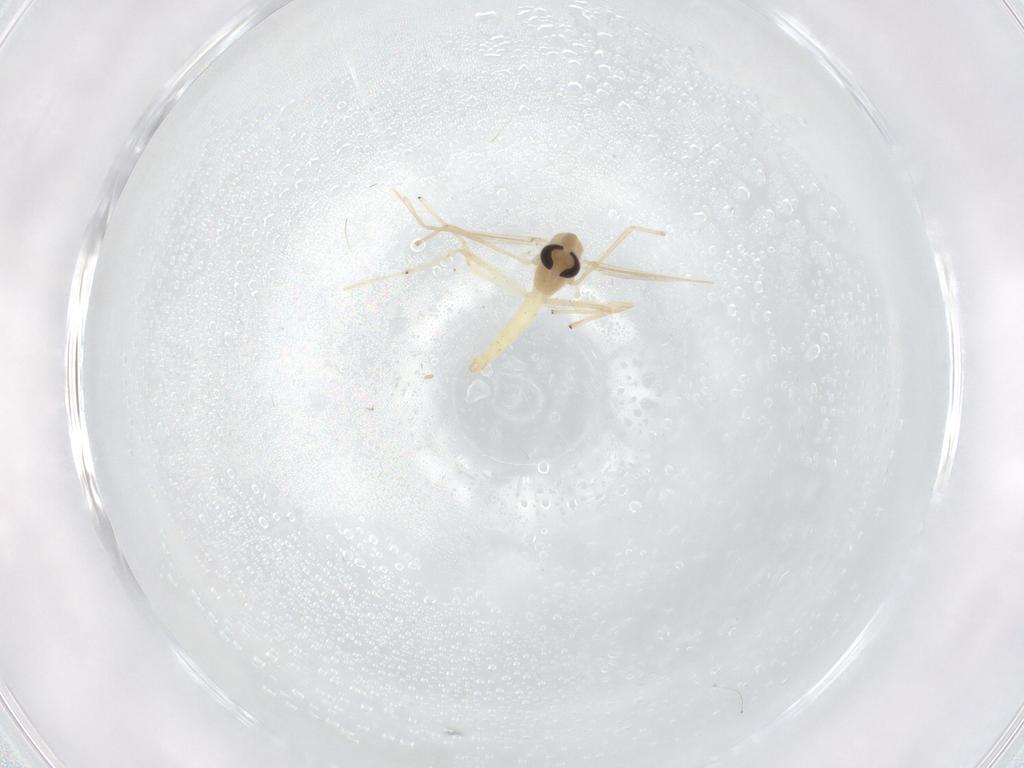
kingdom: Animalia
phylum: Arthropoda
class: Insecta
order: Diptera
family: Chironomidae
